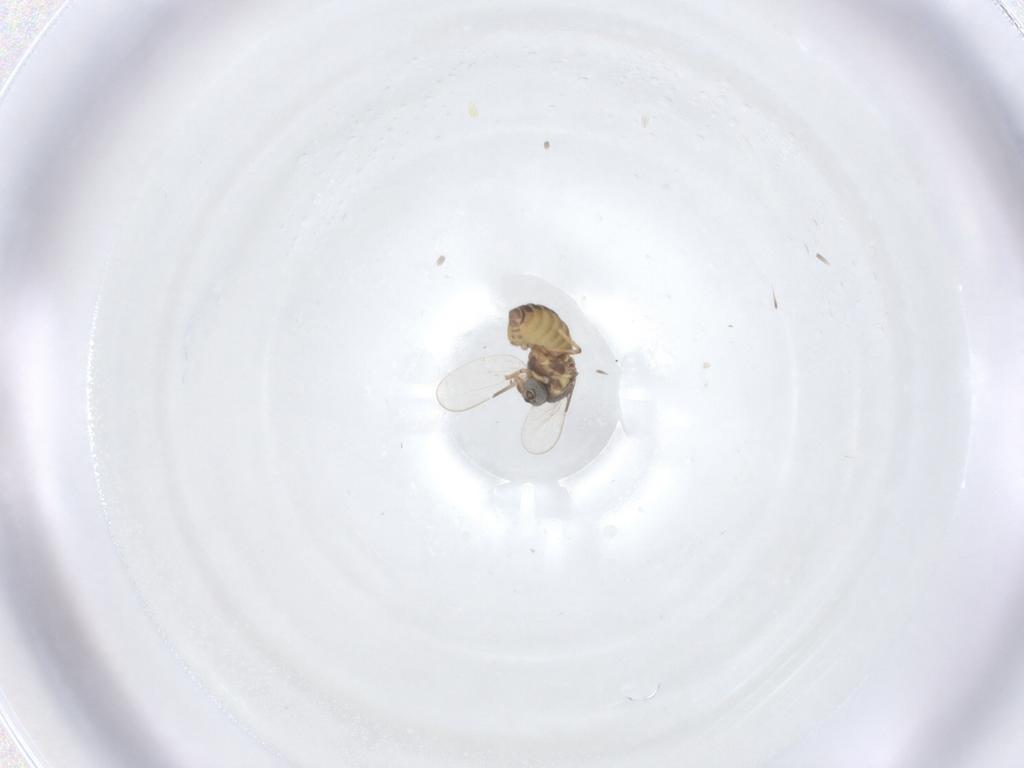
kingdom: Animalia
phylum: Arthropoda
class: Insecta
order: Diptera
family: Ceratopogonidae
